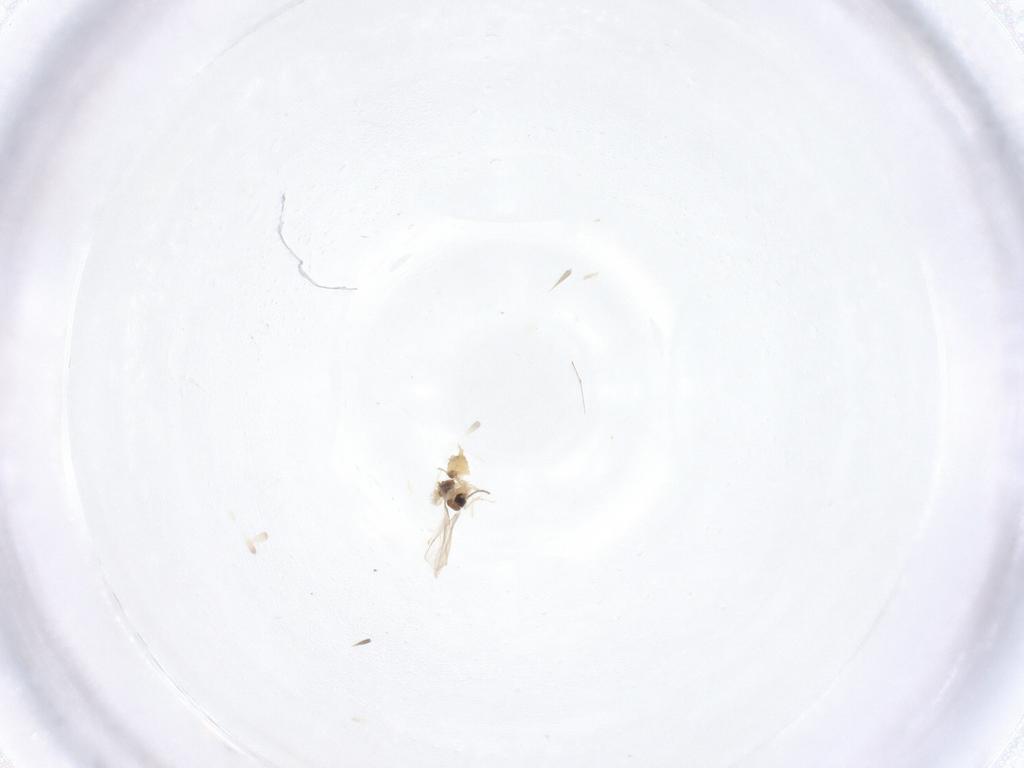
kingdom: Animalia
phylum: Arthropoda
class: Insecta
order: Diptera
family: Cecidomyiidae
